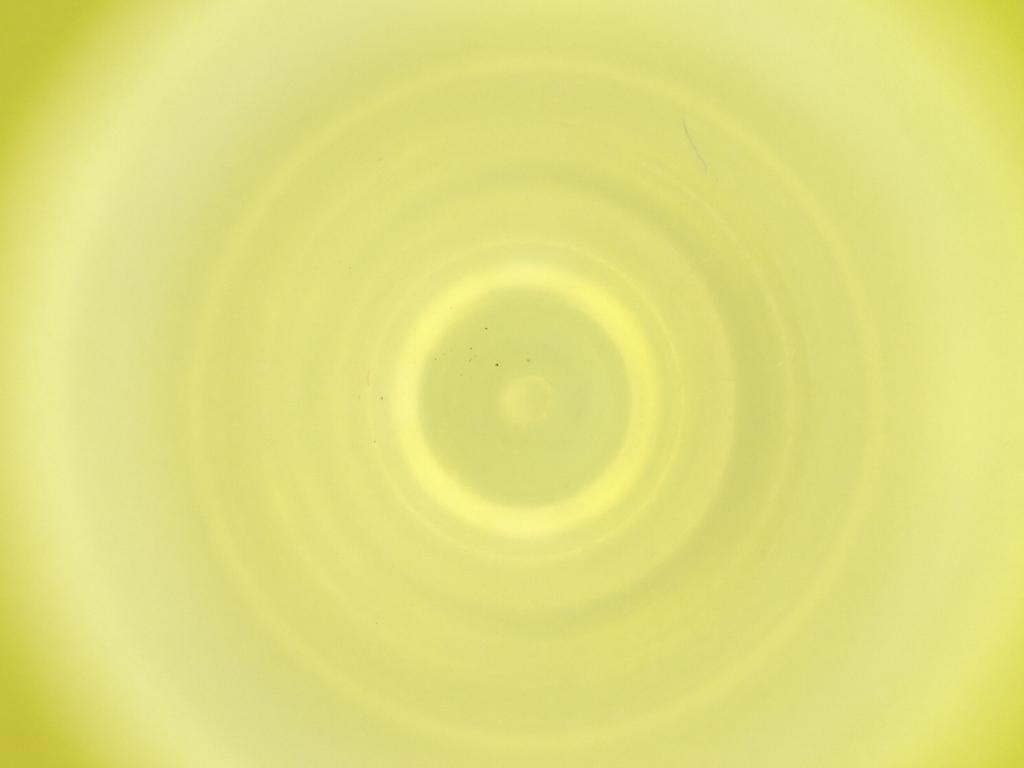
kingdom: Animalia
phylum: Arthropoda
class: Insecta
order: Diptera
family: Cecidomyiidae
